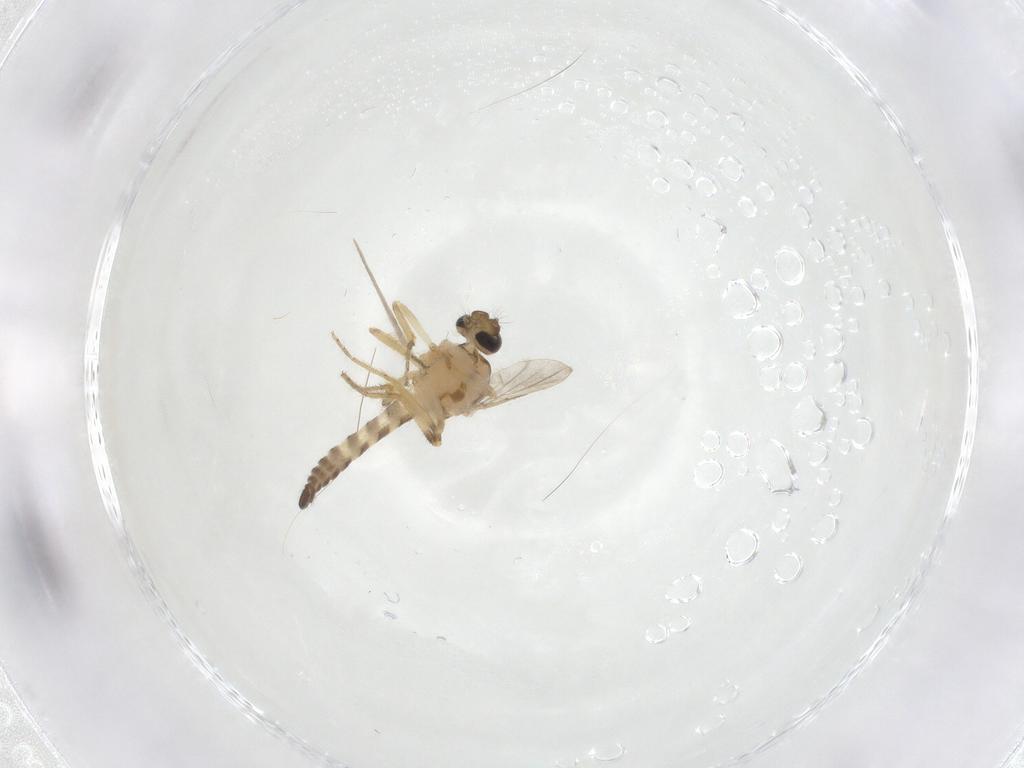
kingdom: Animalia
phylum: Arthropoda
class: Insecta
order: Diptera
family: Ceratopogonidae
